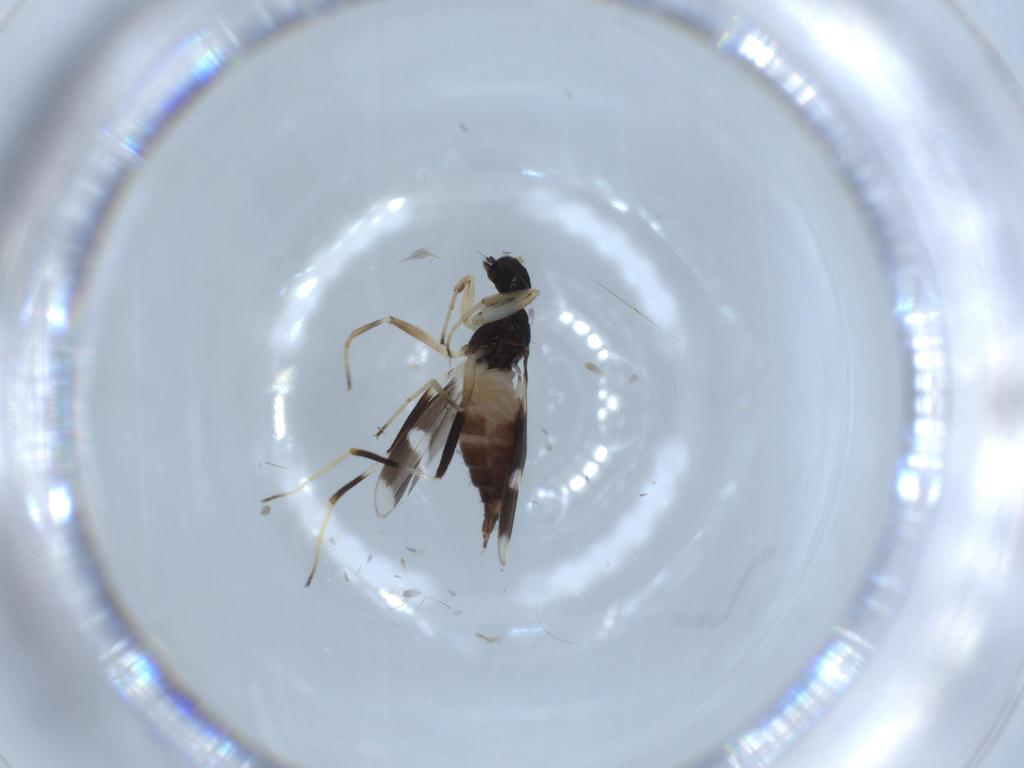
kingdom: Animalia
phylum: Arthropoda
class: Insecta
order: Diptera
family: Hybotidae
